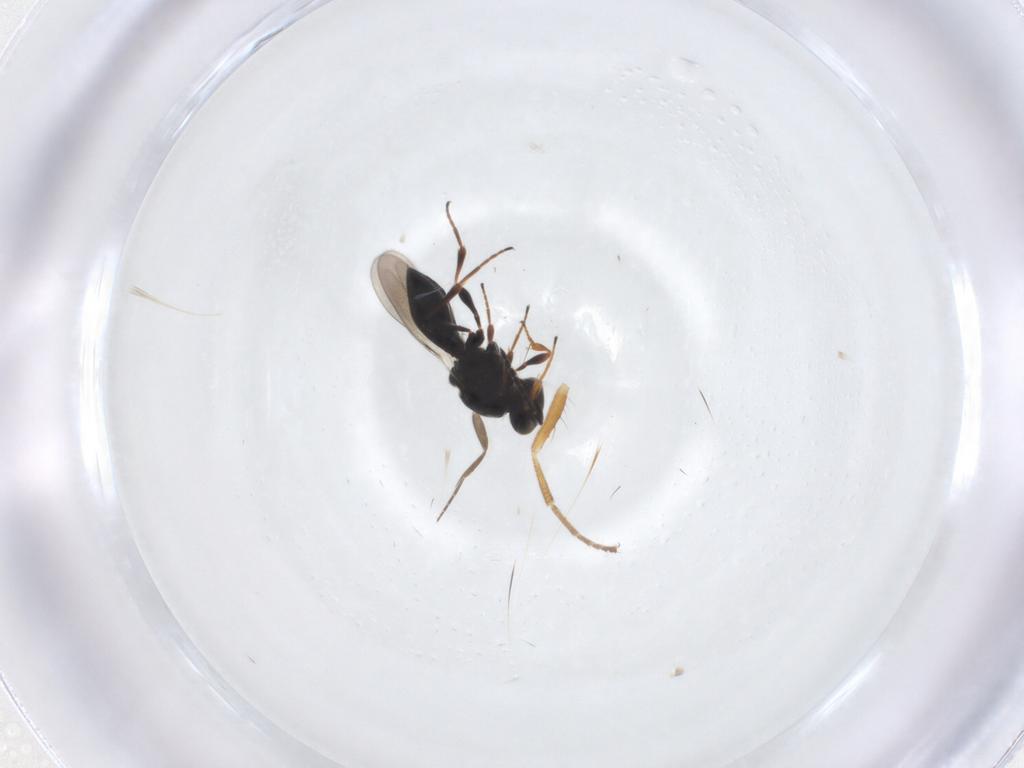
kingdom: Animalia
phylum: Arthropoda
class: Insecta
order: Hymenoptera
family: Platygastridae
